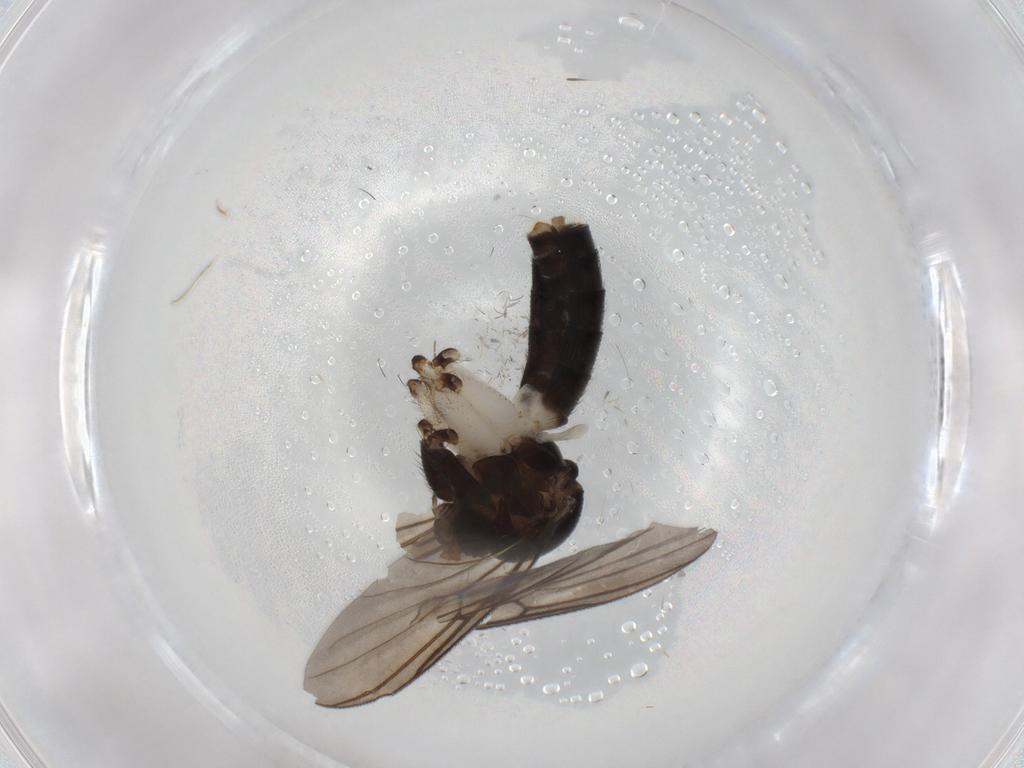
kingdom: Animalia
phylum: Arthropoda
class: Insecta
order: Diptera
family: Chironomidae
